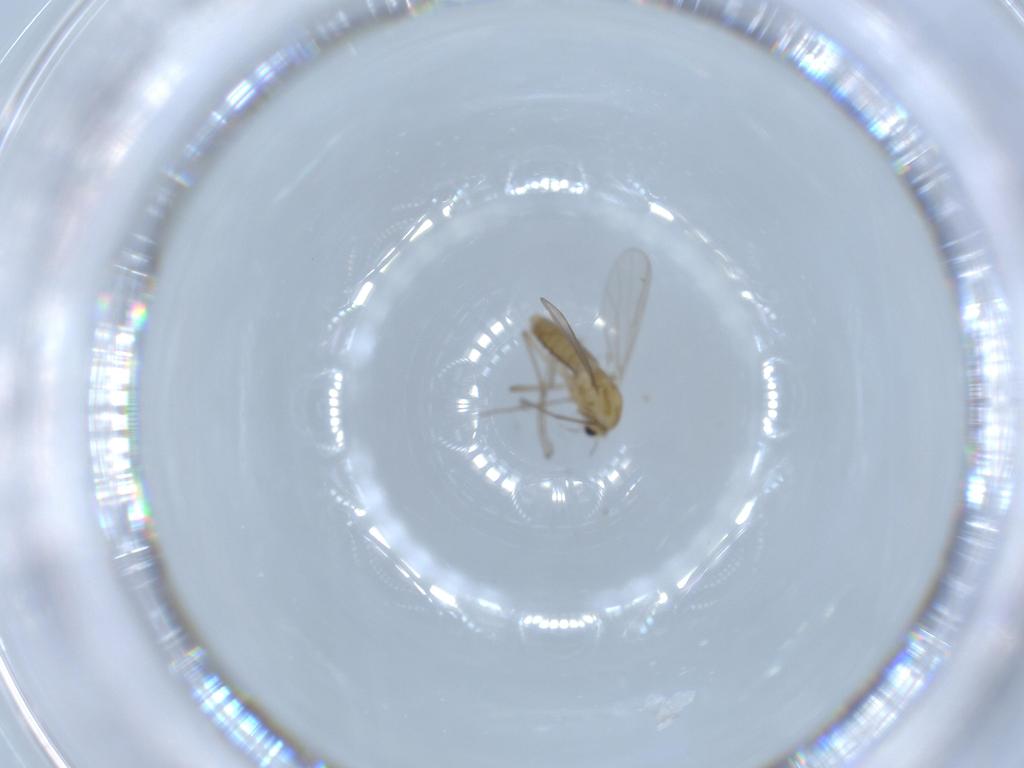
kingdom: Animalia
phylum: Arthropoda
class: Insecta
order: Diptera
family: Chironomidae
